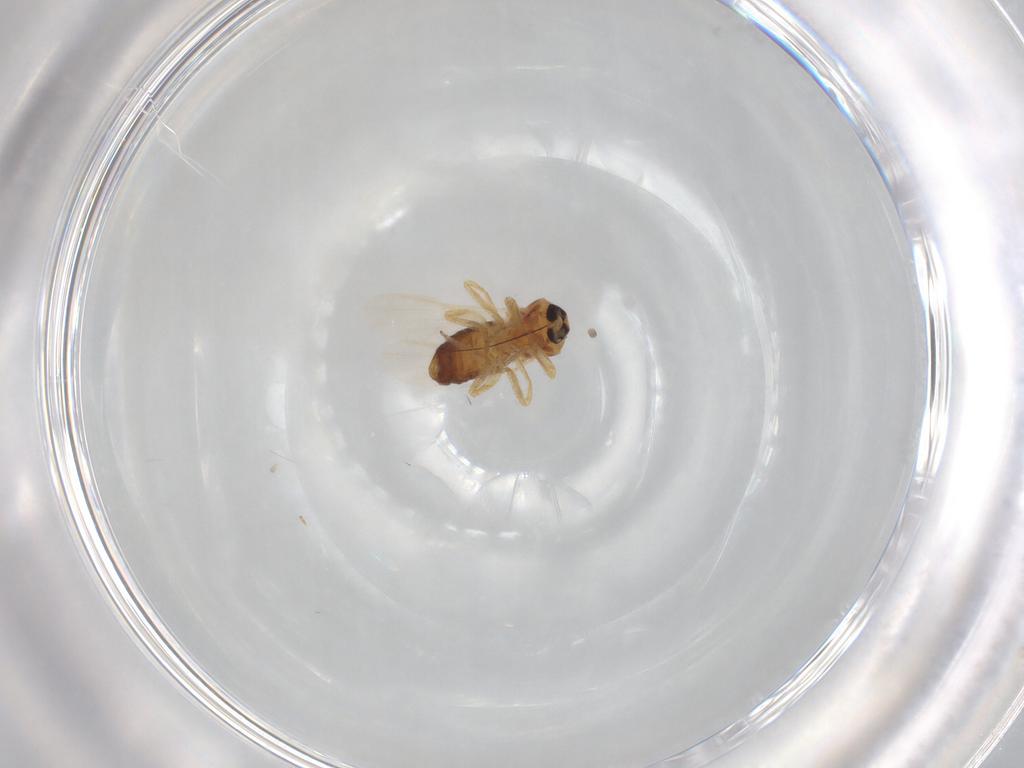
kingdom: Animalia
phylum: Arthropoda
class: Insecta
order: Diptera
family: Ceratopogonidae
